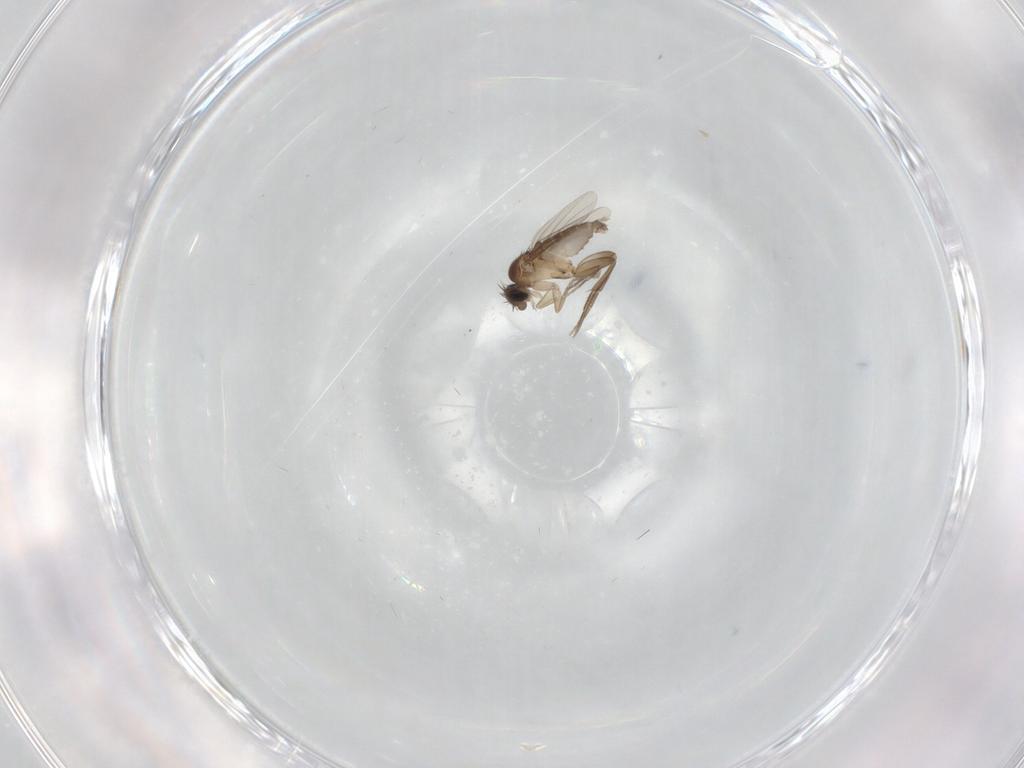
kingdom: Animalia
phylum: Arthropoda
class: Insecta
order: Diptera
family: Phoridae
